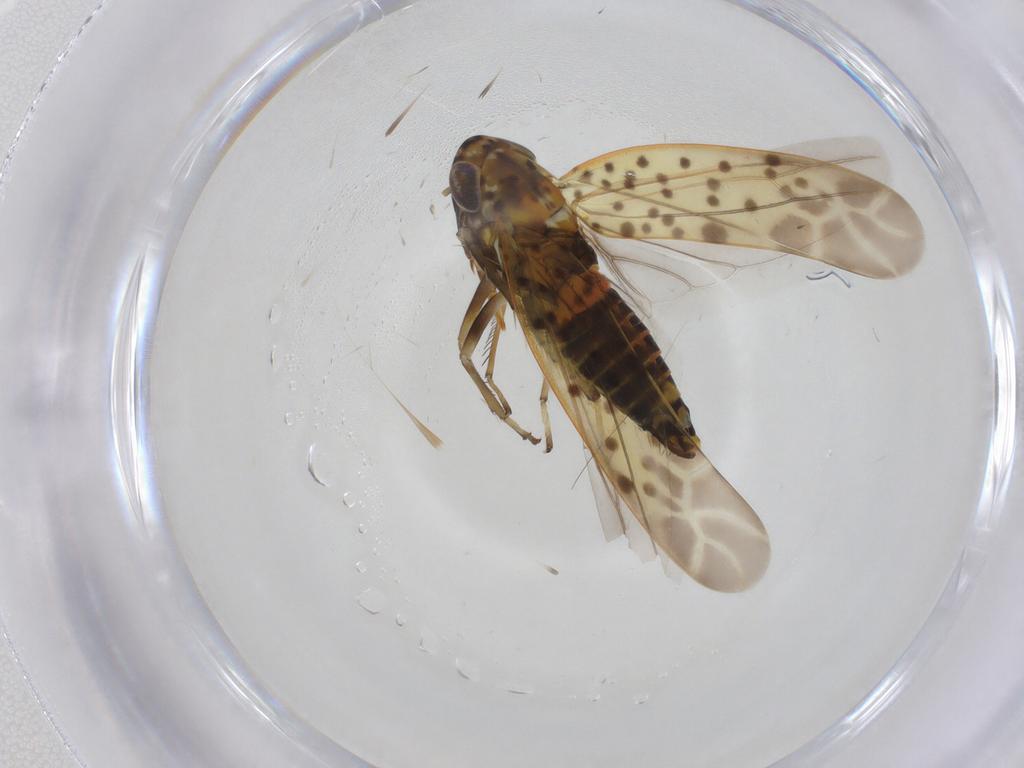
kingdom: Animalia
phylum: Arthropoda
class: Insecta
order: Hemiptera
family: Cicadellidae
